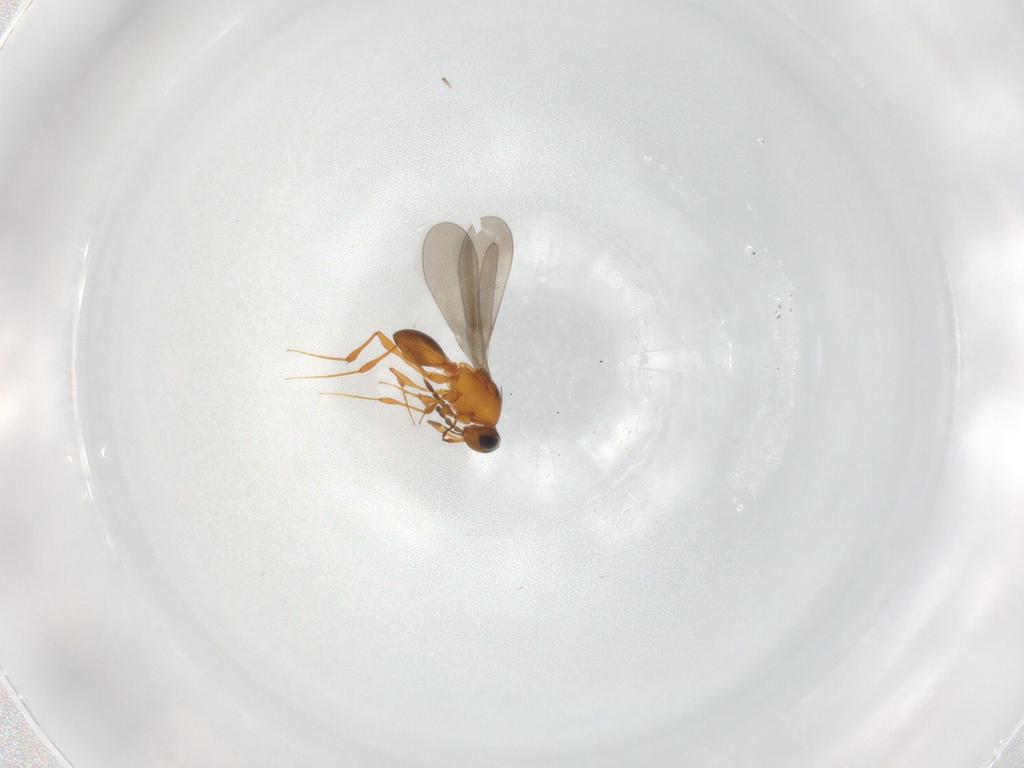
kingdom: Animalia
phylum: Arthropoda
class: Insecta
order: Hymenoptera
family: Platygastridae
